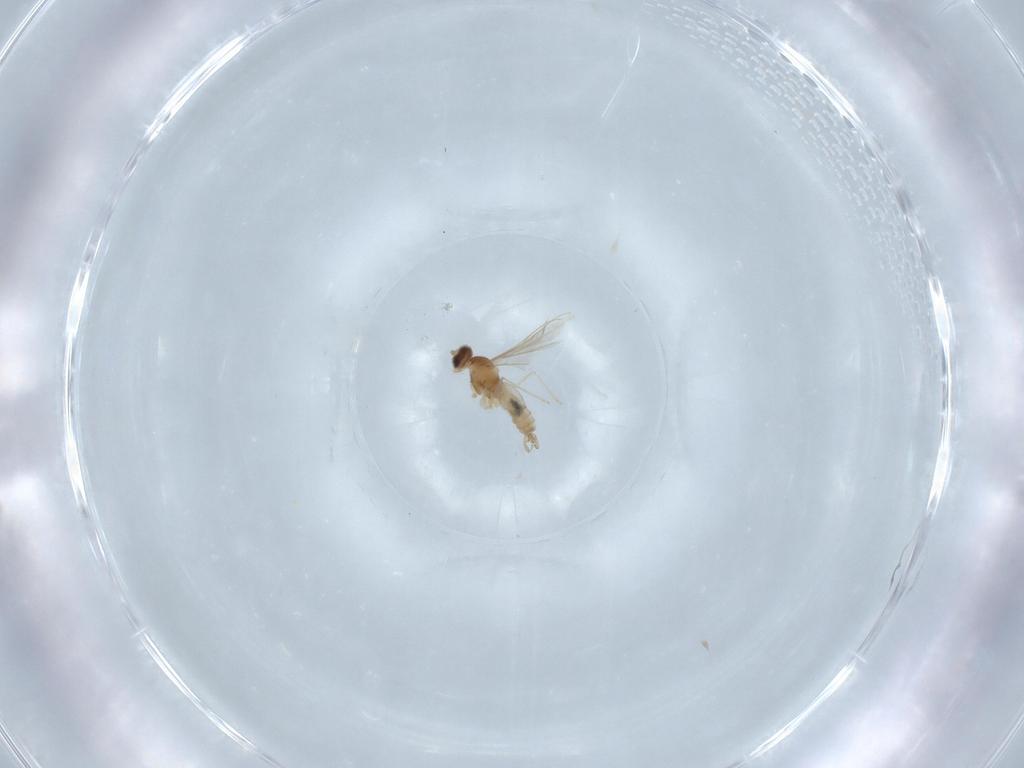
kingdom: Animalia
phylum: Arthropoda
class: Insecta
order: Diptera
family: Cecidomyiidae
